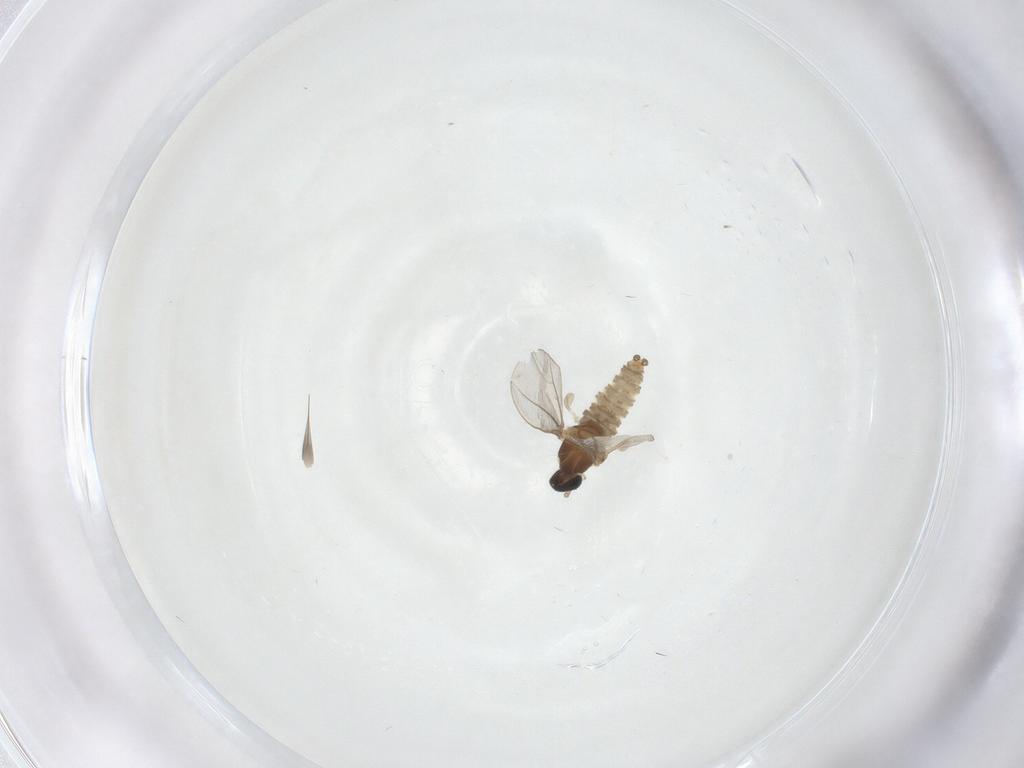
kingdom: Animalia
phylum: Arthropoda
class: Insecta
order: Diptera
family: Cecidomyiidae
